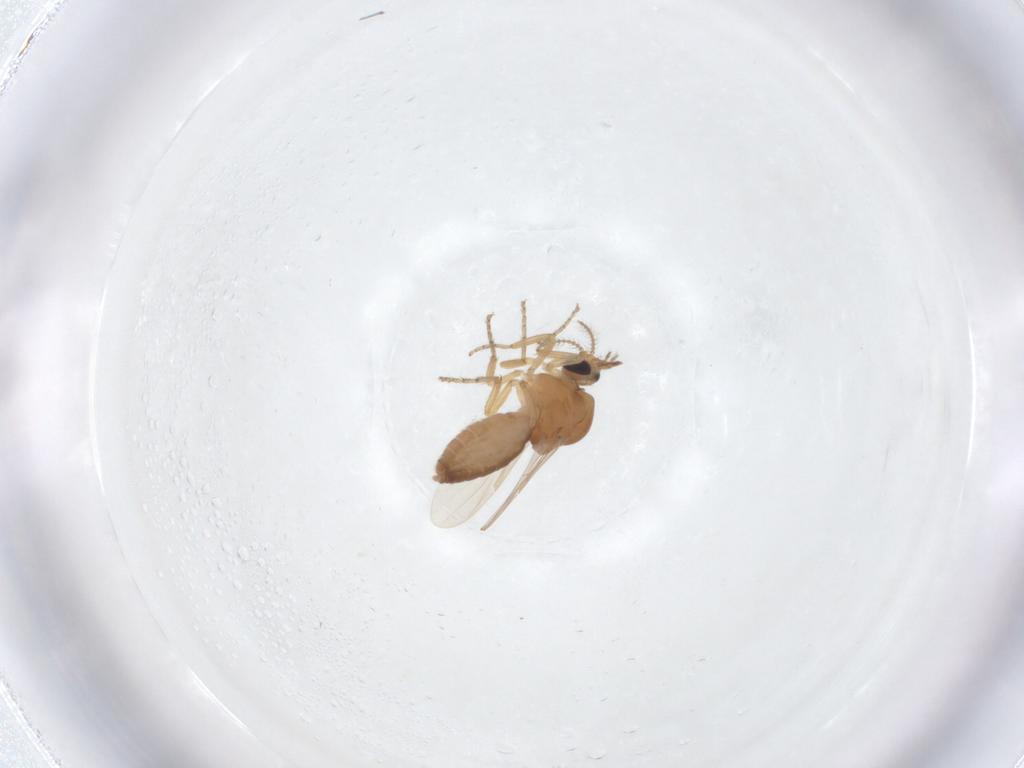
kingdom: Animalia
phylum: Arthropoda
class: Insecta
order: Diptera
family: Ceratopogonidae
